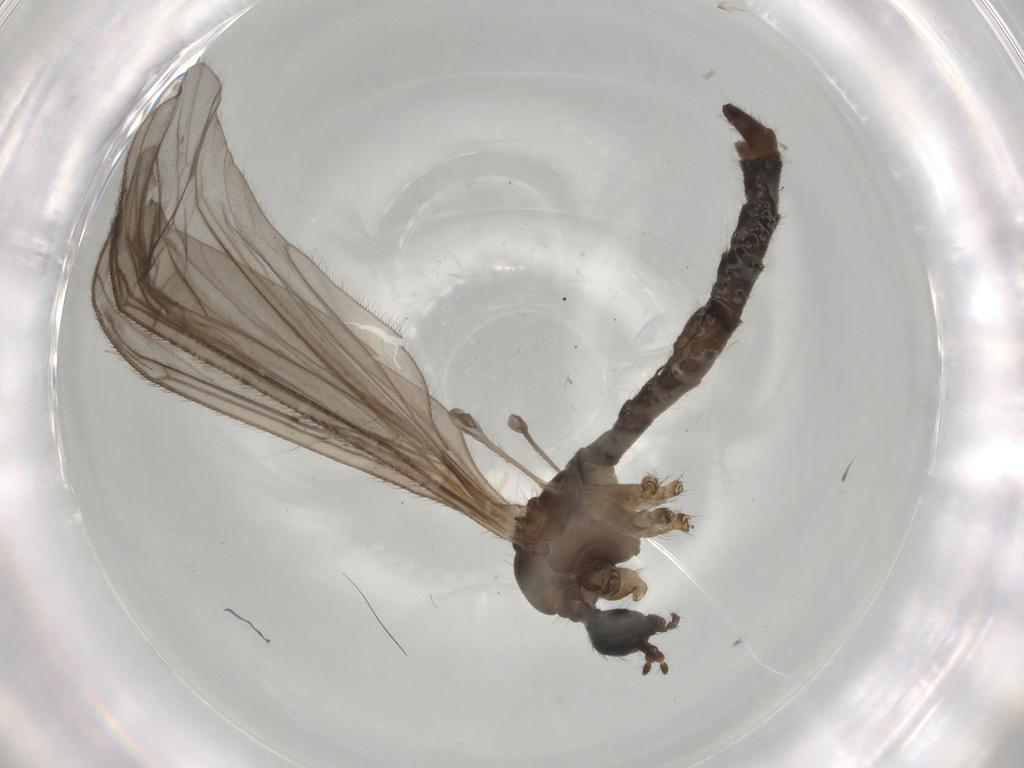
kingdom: Animalia
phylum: Arthropoda
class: Insecta
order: Diptera
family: Limoniidae
